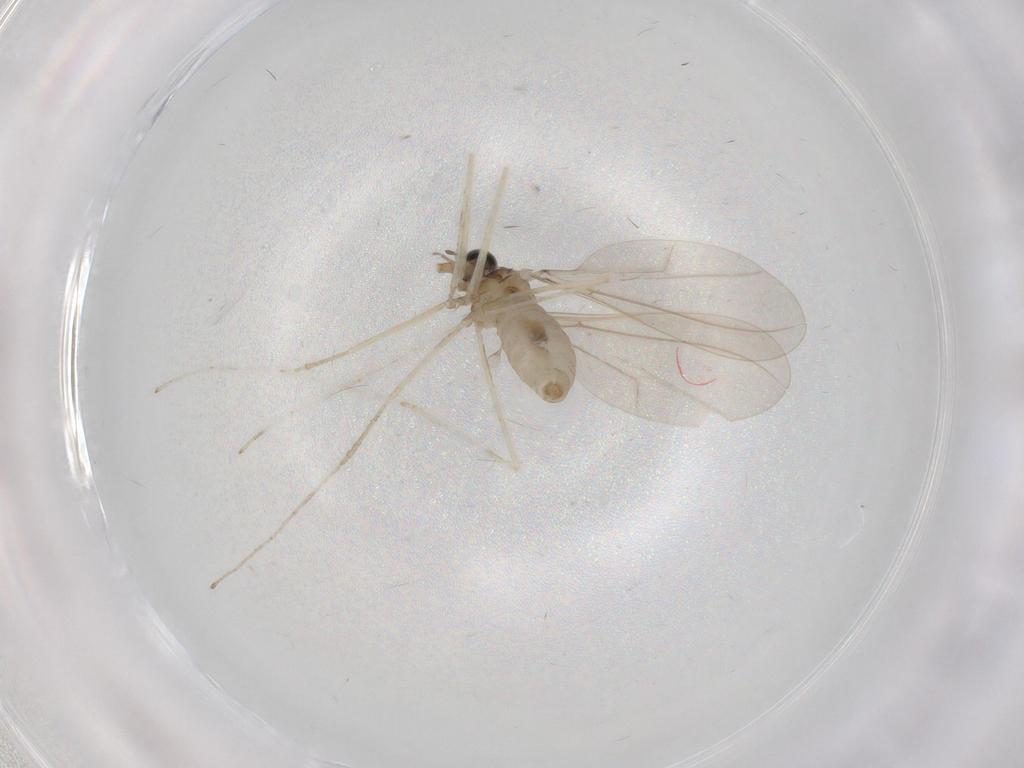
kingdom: Animalia
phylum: Arthropoda
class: Insecta
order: Diptera
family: Cecidomyiidae
